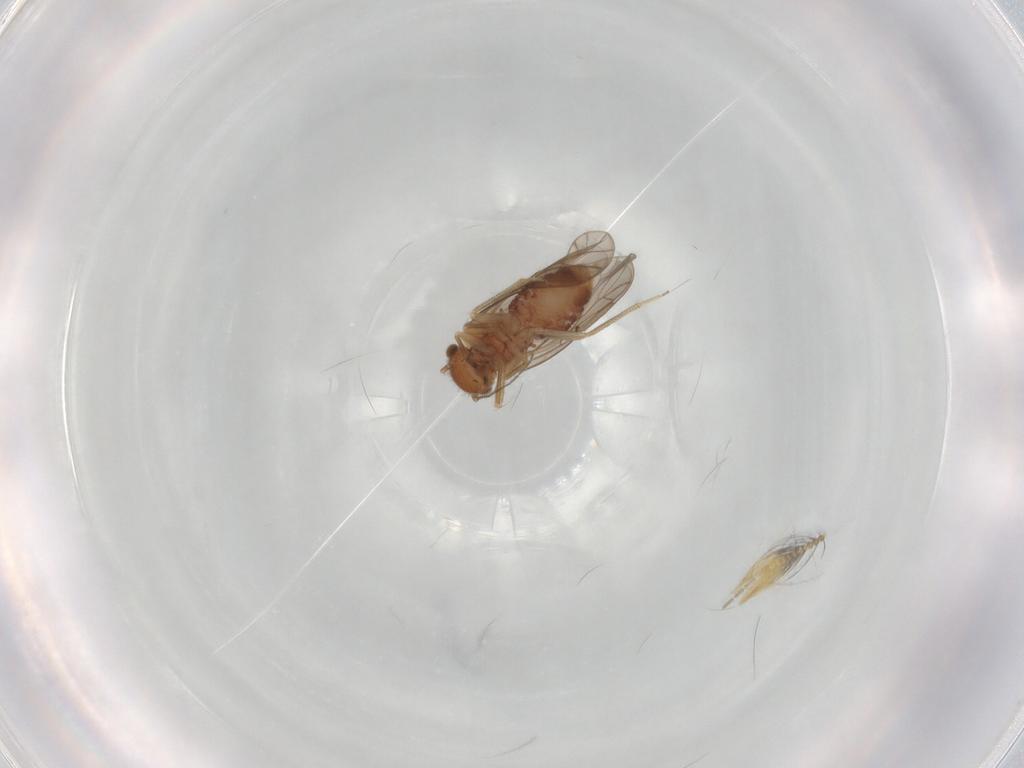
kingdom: Animalia
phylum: Arthropoda
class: Insecta
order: Psocodea
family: Ectopsocidae
